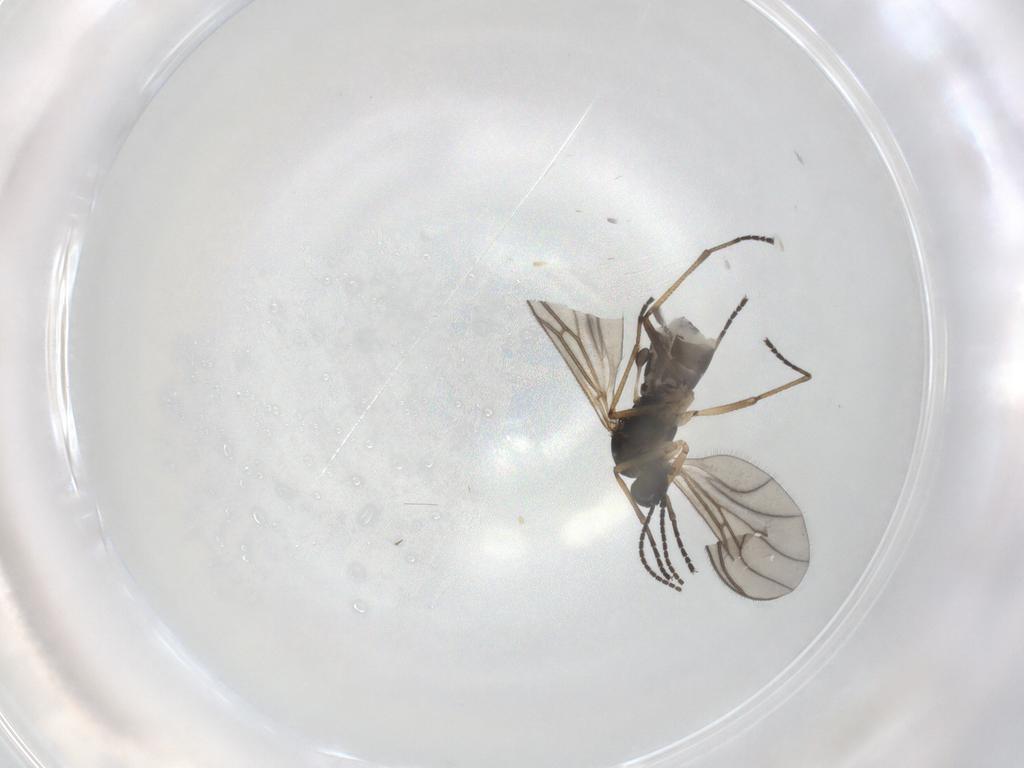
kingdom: Animalia
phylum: Arthropoda
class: Insecta
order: Diptera
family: Sciaridae
